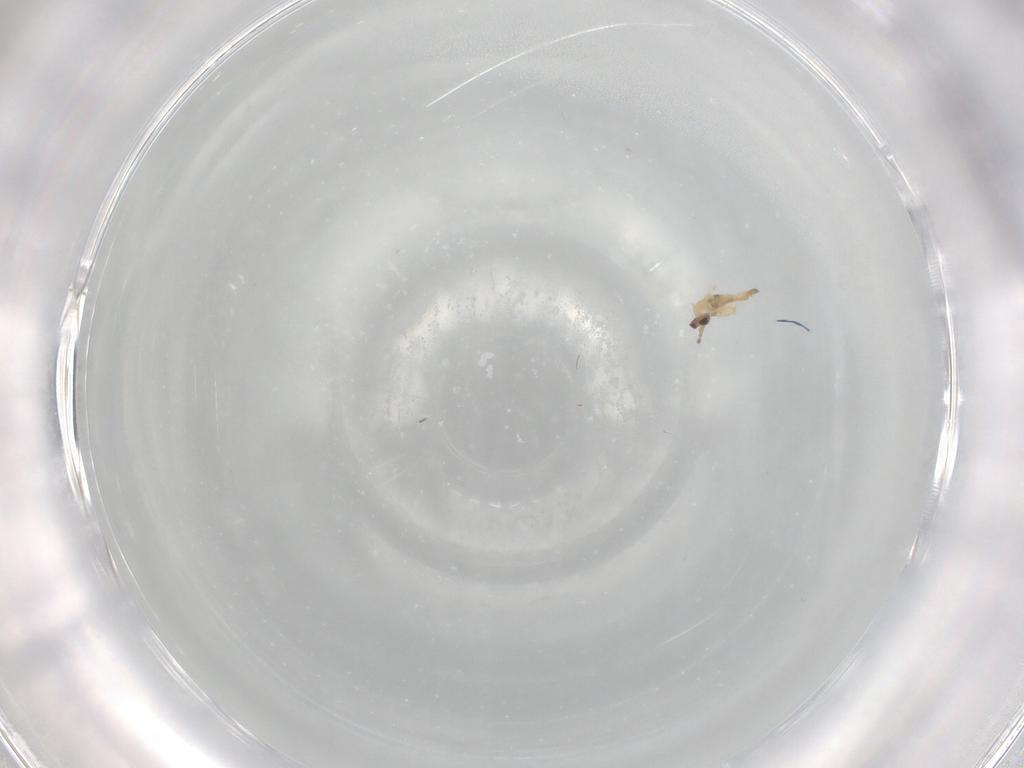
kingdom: Animalia
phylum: Arthropoda
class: Insecta
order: Diptera
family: Cecidomyiidae
